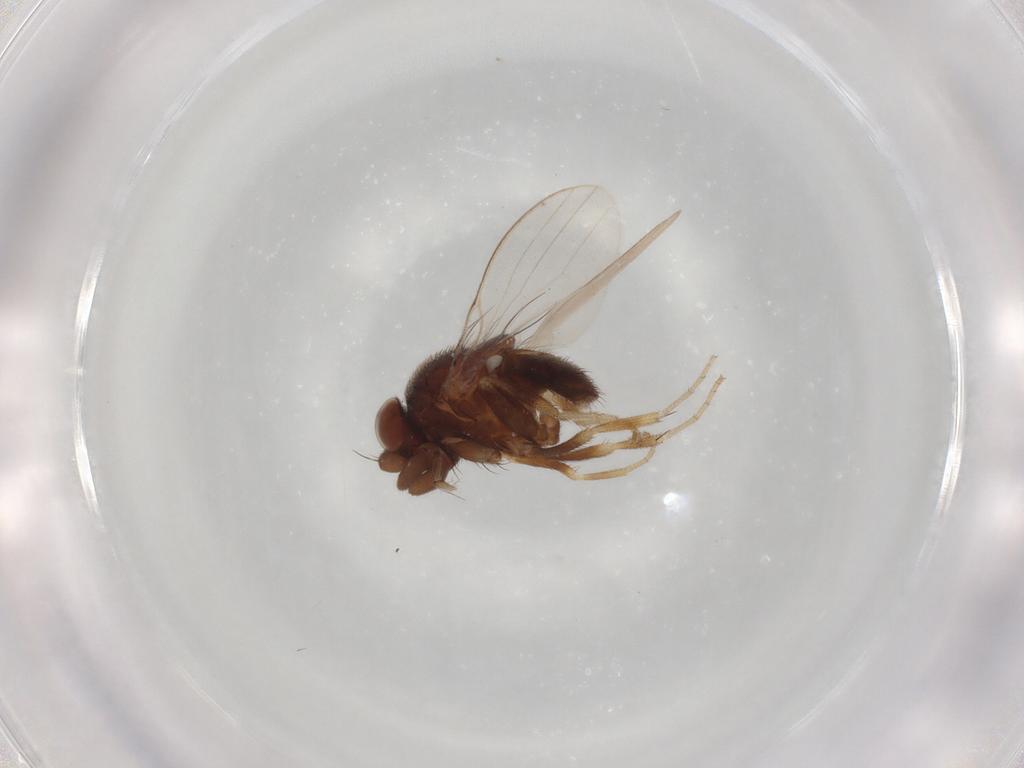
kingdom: Animalia
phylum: Arthropoda
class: Insecta
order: Diptera
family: Milichiidae
